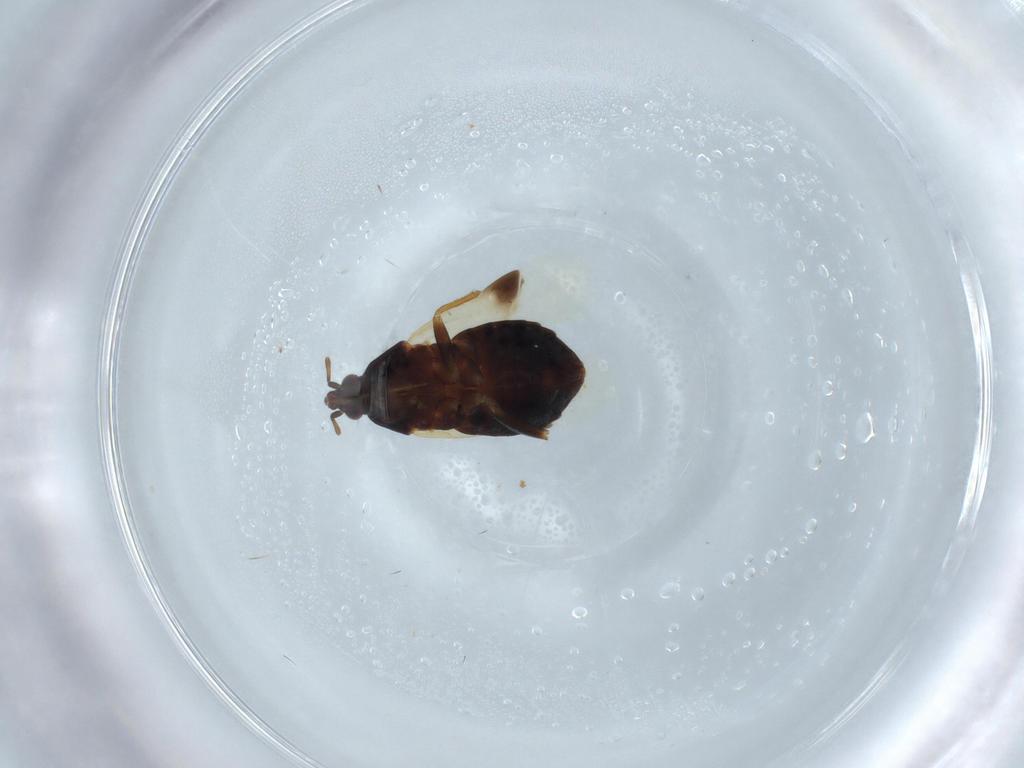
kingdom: Animalia
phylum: Arthropoda
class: Insecta
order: Hemiptera
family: Anthocoridae
